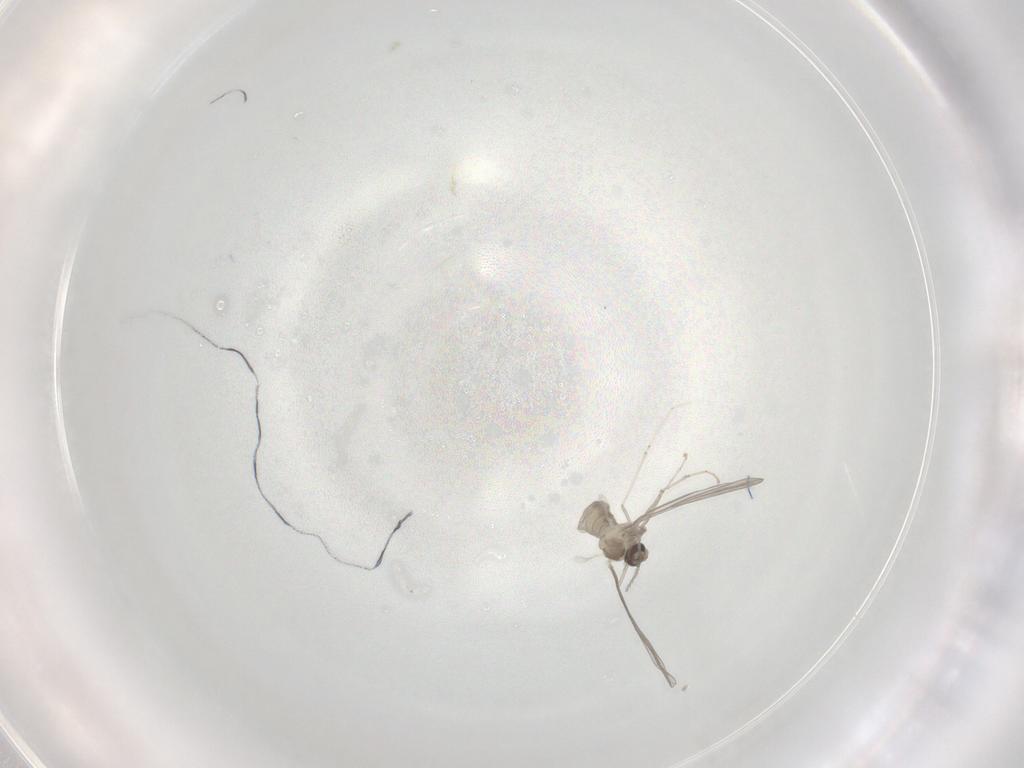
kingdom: Animalia
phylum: Arthropoda
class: Insecta
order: Diptera
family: Cecidomyiidae
